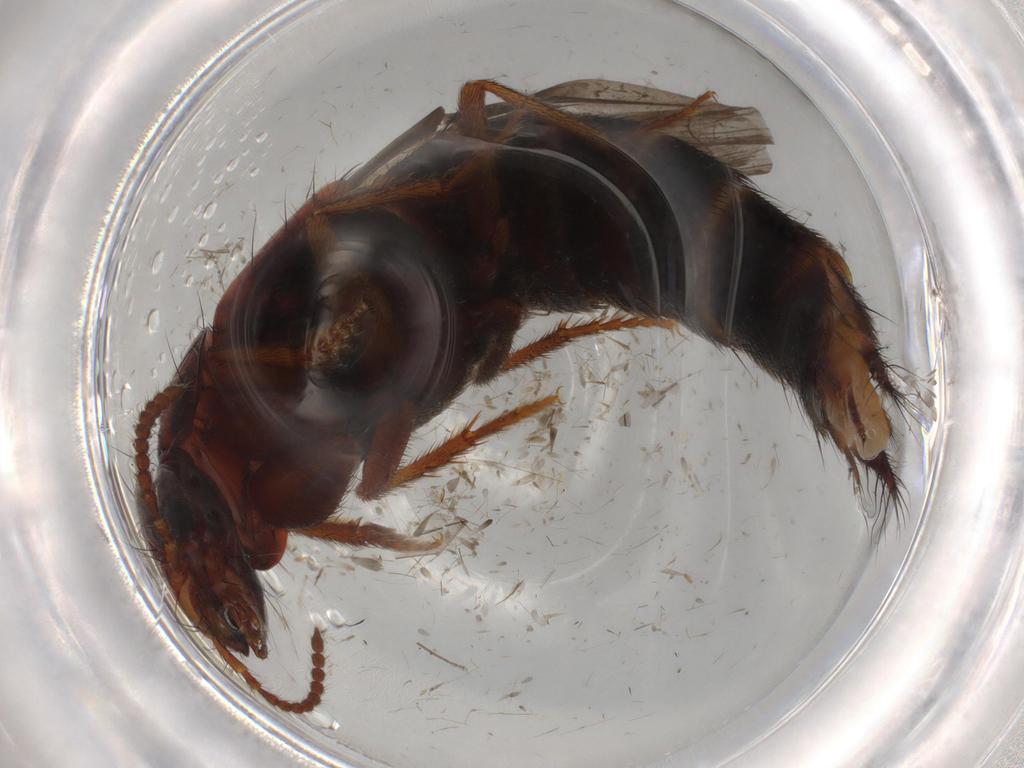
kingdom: Animalia
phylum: Arthropoda
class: Insecta
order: Coleoptera
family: Staphylinidae
